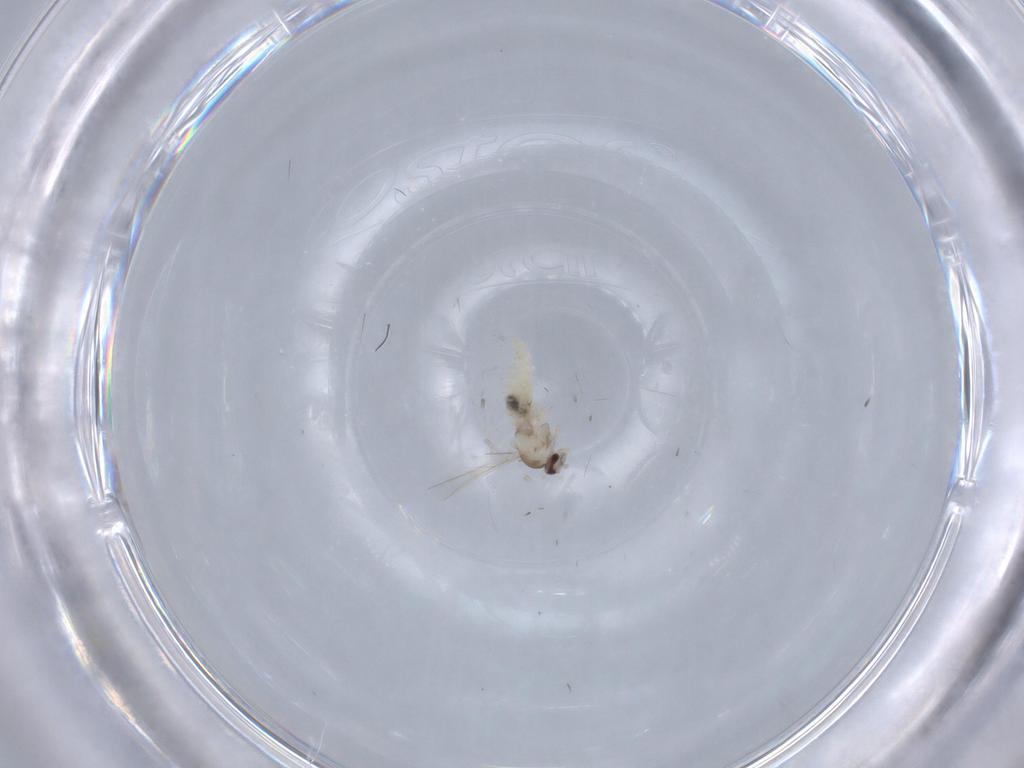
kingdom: Animalia
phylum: Arthropoda
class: Insecta
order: Diptera
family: Cecidomyiidae
